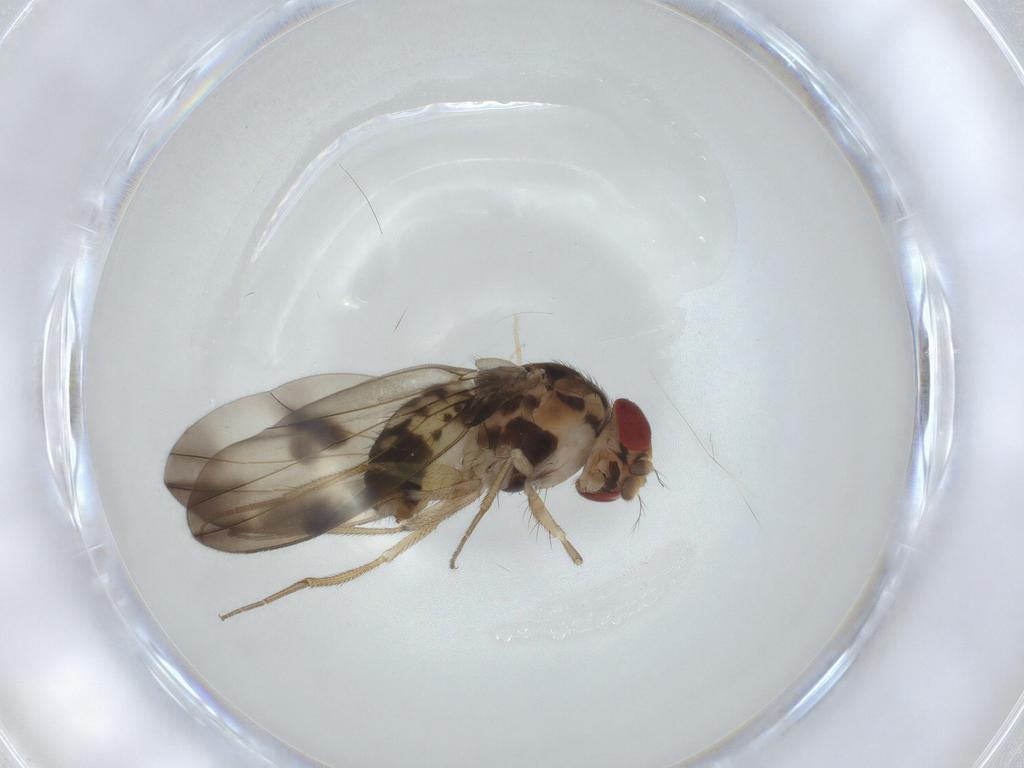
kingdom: Animalia
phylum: Arthropoda
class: Insecta
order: Diptera
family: Drosophilidae
